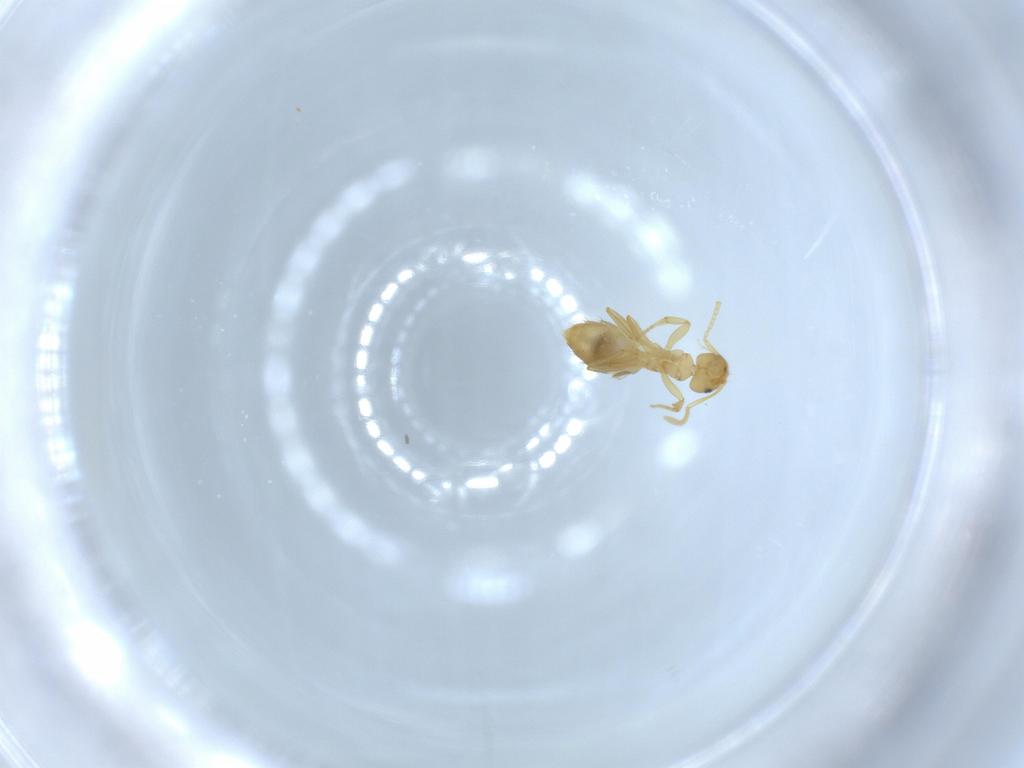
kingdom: Animalia
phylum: Arthropoda
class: Insecta
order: Hymenoptera
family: Formicidae
